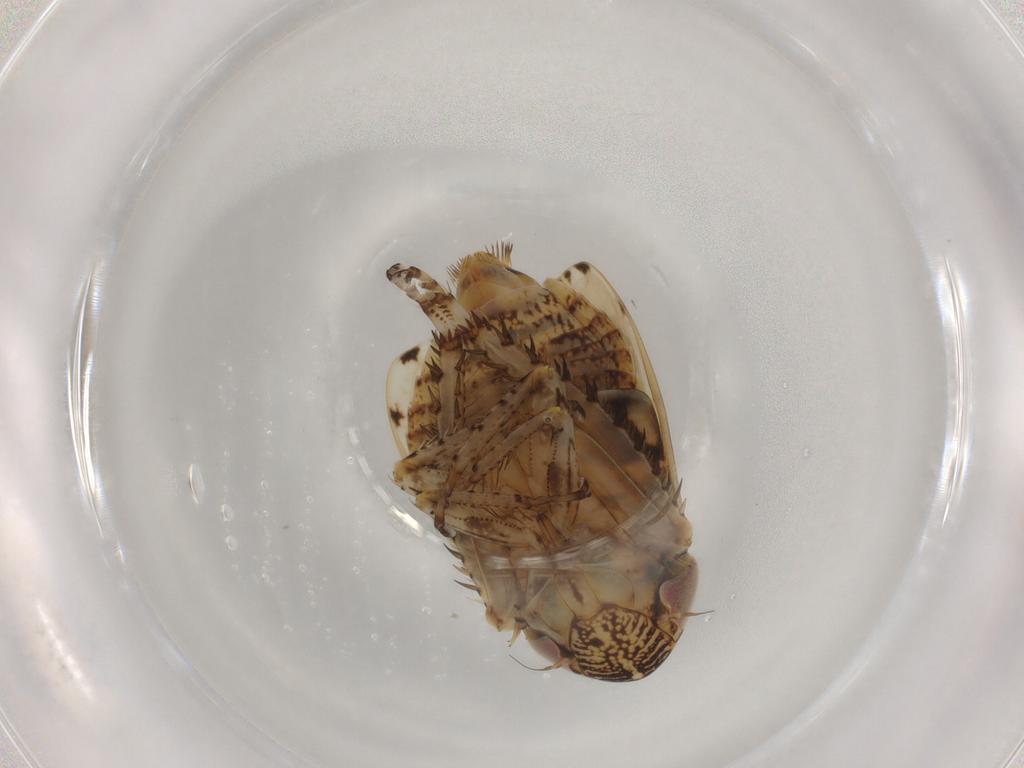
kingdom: Animalia
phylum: Arthropoda
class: Insecta
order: Hemiptera
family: Cicadellidae
